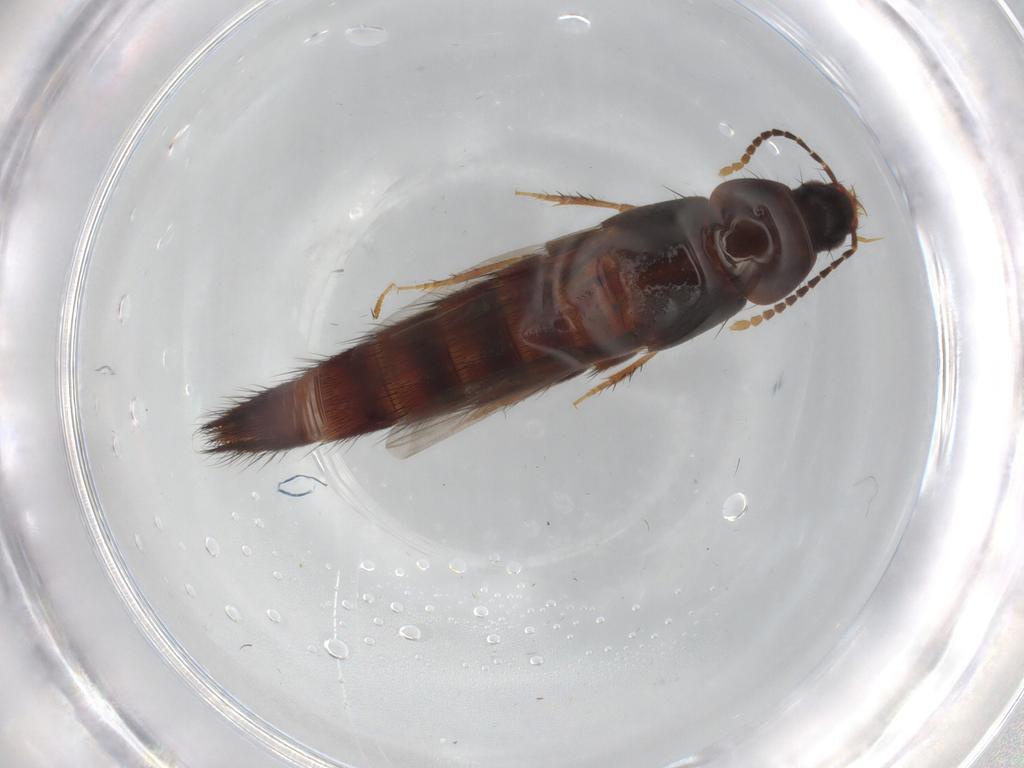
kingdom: Animalia
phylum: Arthropoda
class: Insecta
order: Coleoptera
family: Staphylinidae
